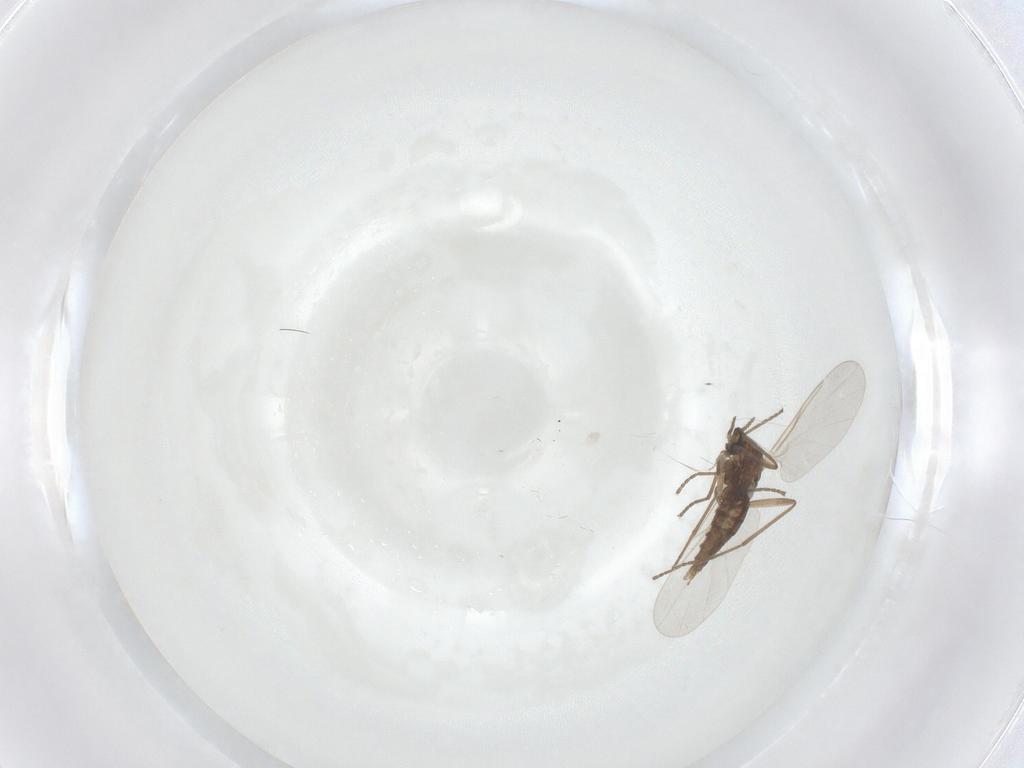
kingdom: Animalia
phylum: Arthropoda
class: Insecta
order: Diptera
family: Cecidomyiidae
